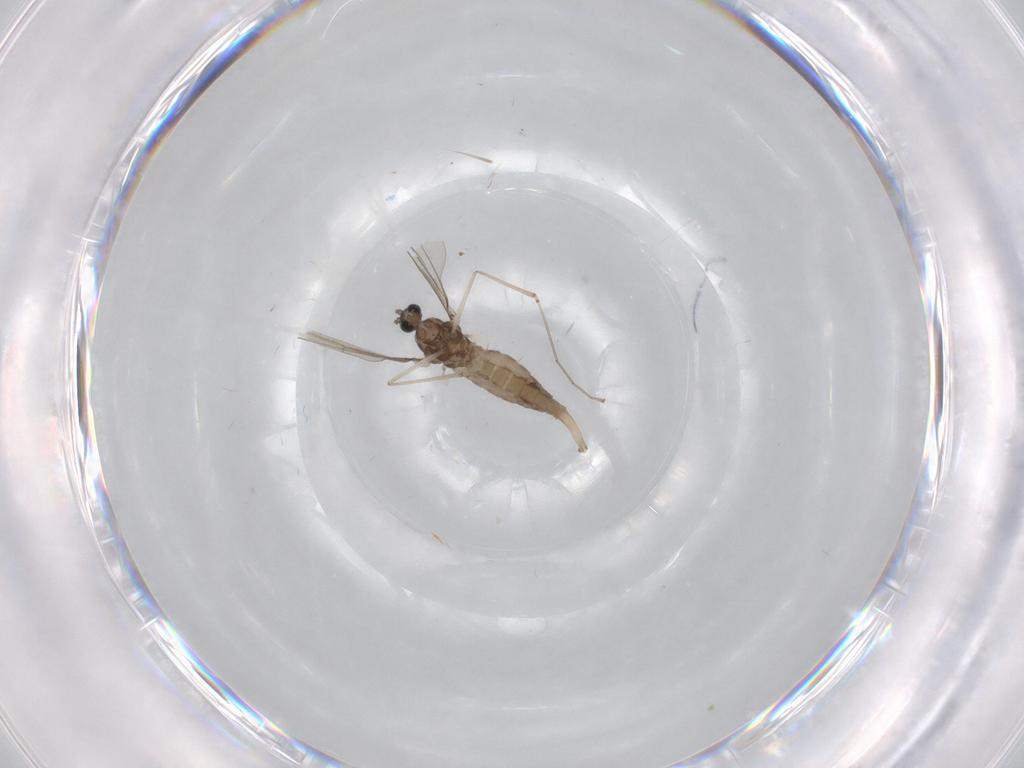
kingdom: Animalia
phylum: Arthropoda
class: Insecta
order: Diptera
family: Cecidomyiidae
